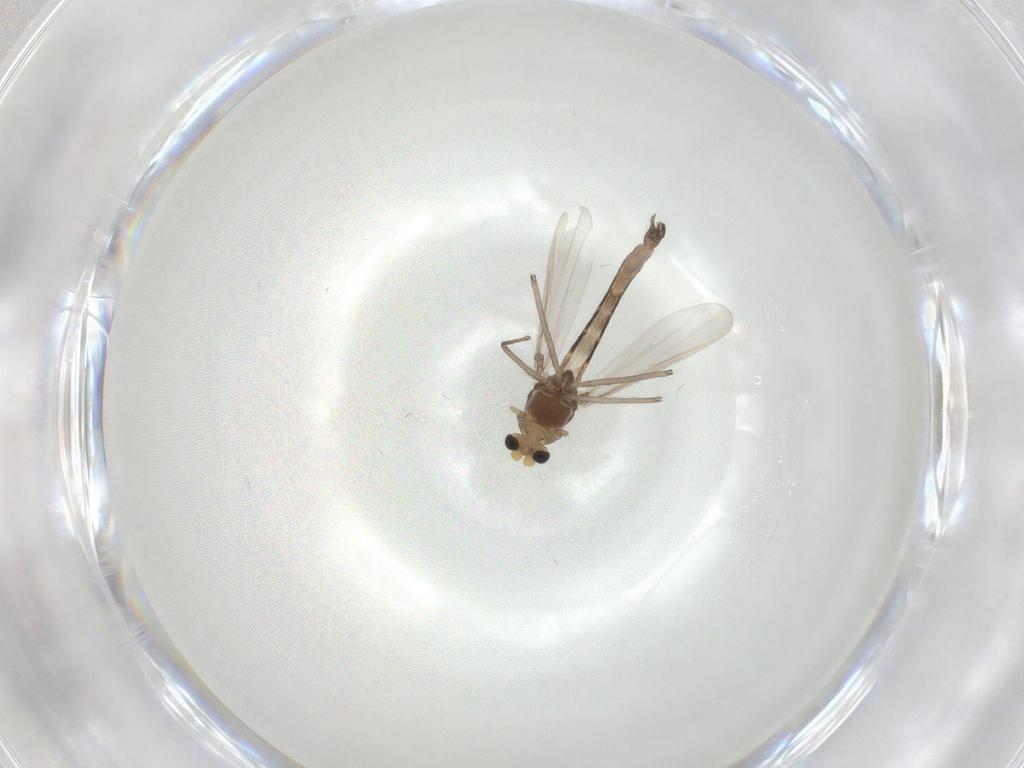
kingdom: Animalia
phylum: Arthropoda
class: Insecta
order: Diptera
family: Chironomidae
